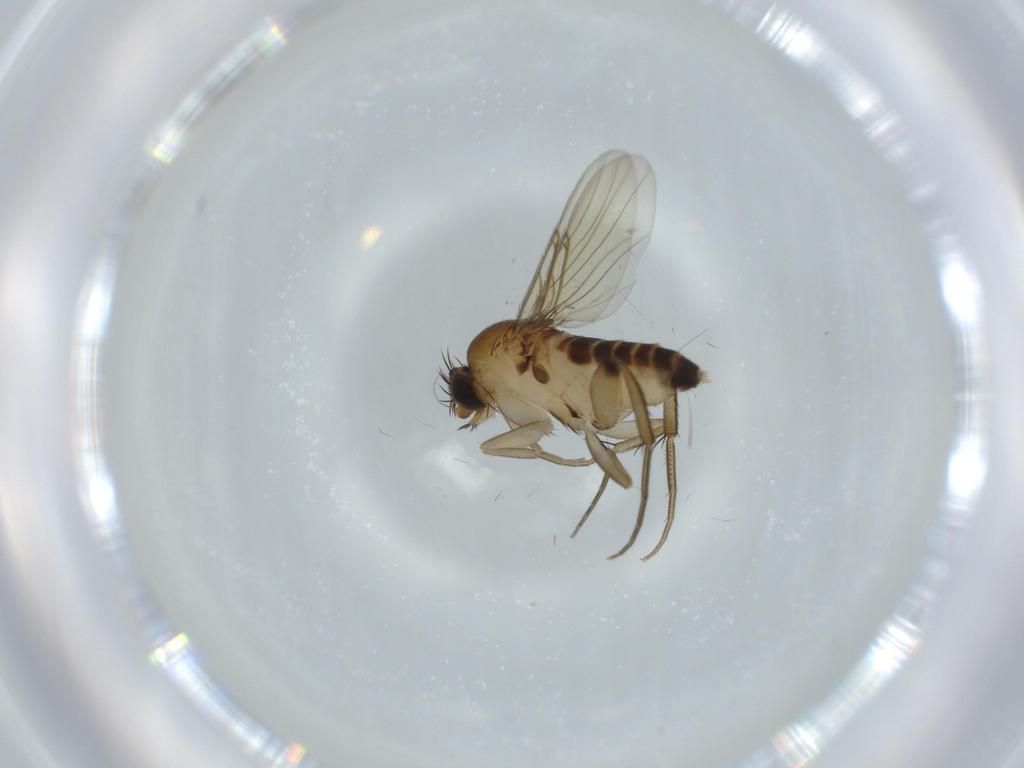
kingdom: Animalia
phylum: Arthropoda
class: Insecta
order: Diptera
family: Phoridae
